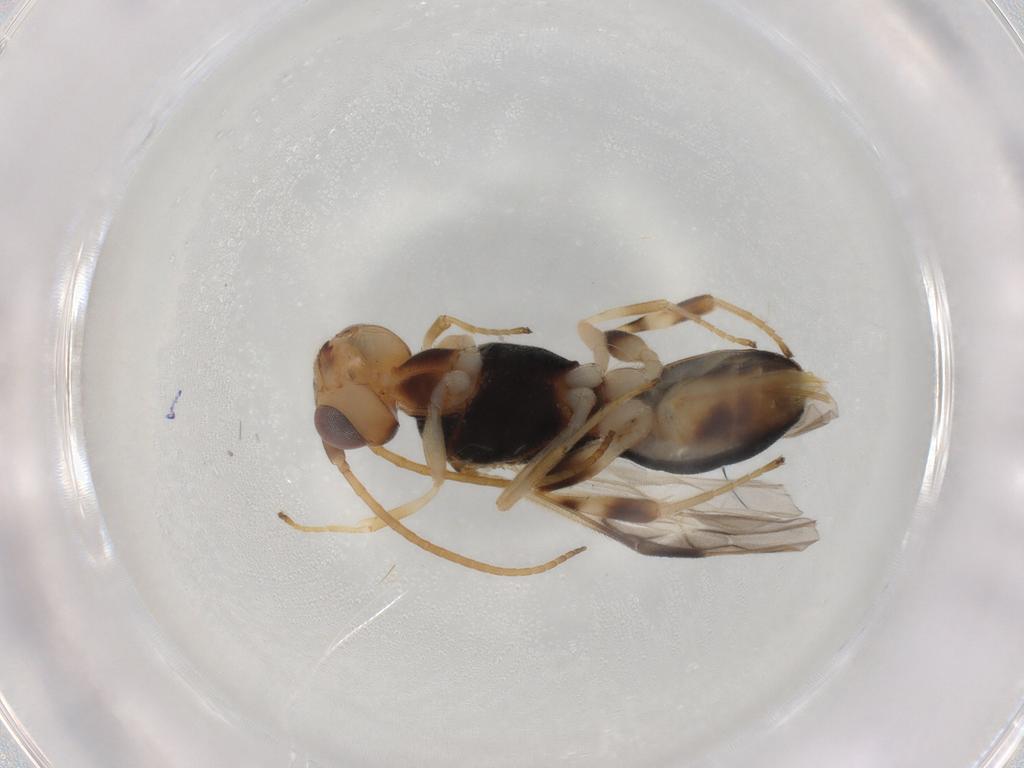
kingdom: Animalia
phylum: Arthropoda
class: Insecta
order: Hymenoptera
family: Braconidae
